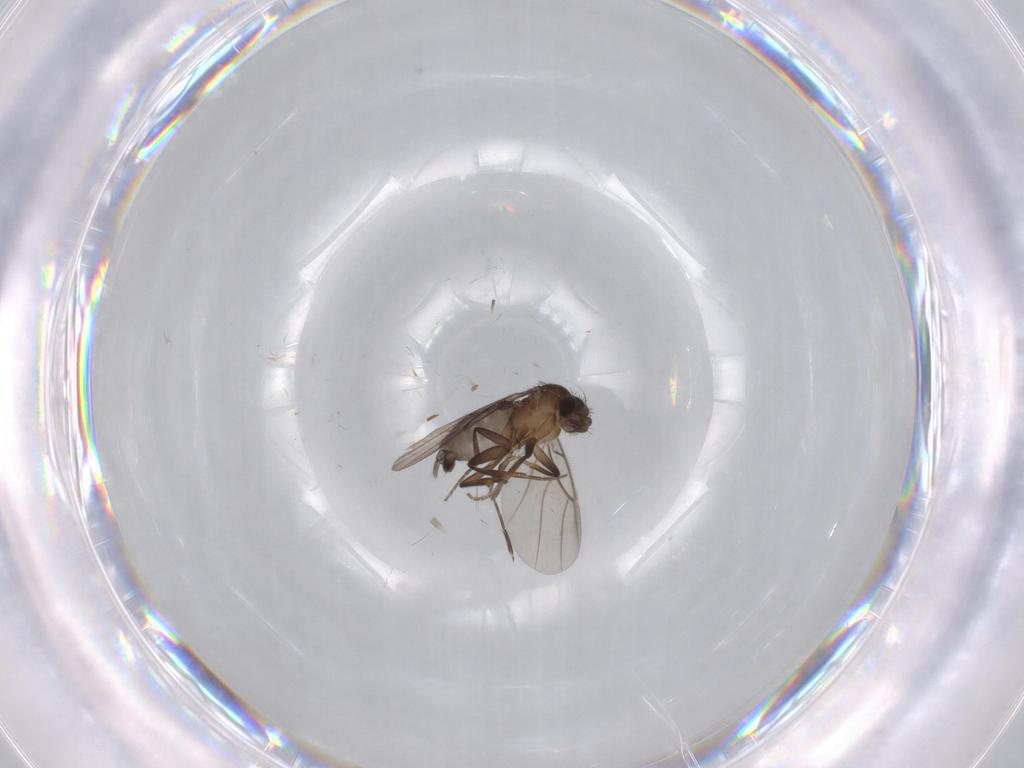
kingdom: Animalia
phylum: Arthropoda
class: Insecta
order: Diptera
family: Phoridae
